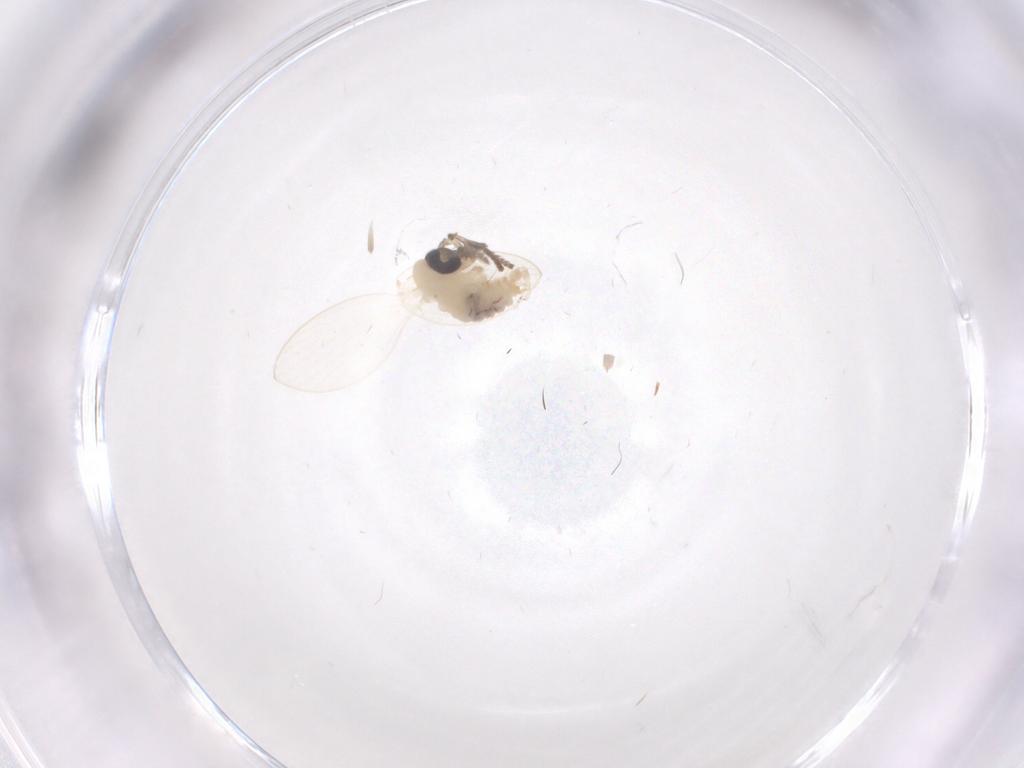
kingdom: Animalia
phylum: Arthropoda
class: Insecta
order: Diptera
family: Psychodidae
